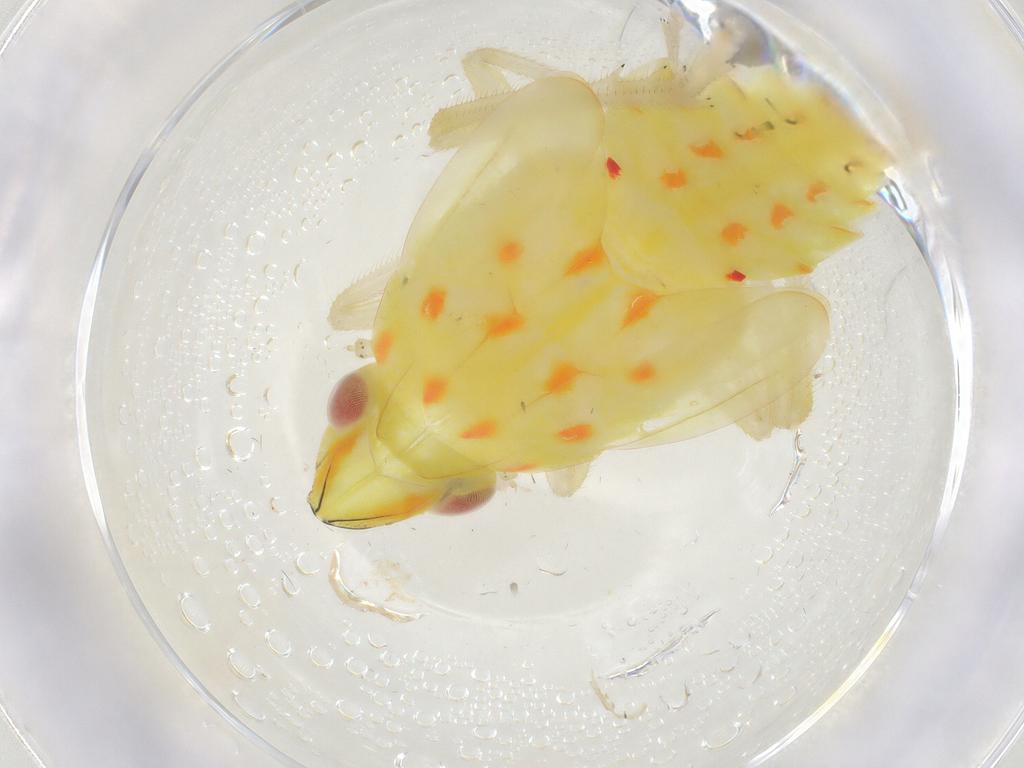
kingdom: Animalia
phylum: Arthropoda
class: Insecta
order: Hemiptera
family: Tropiduchidae
